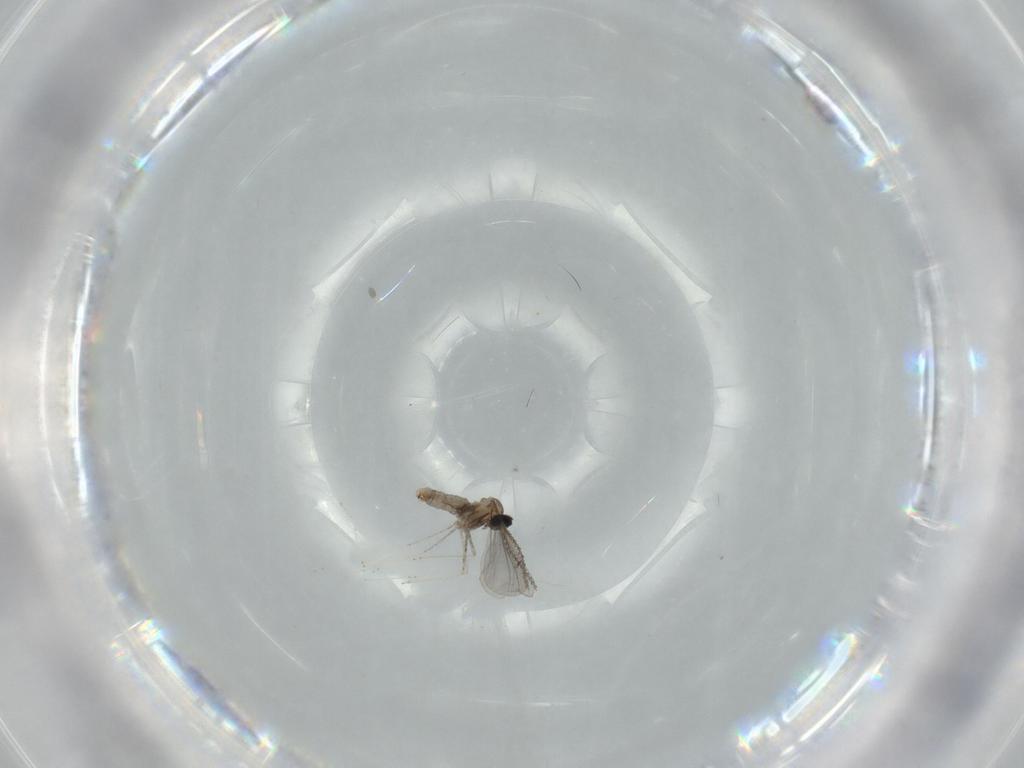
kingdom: Animalia
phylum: Arthropoda
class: Insecta
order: Diptera
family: Cecidomyiidae
